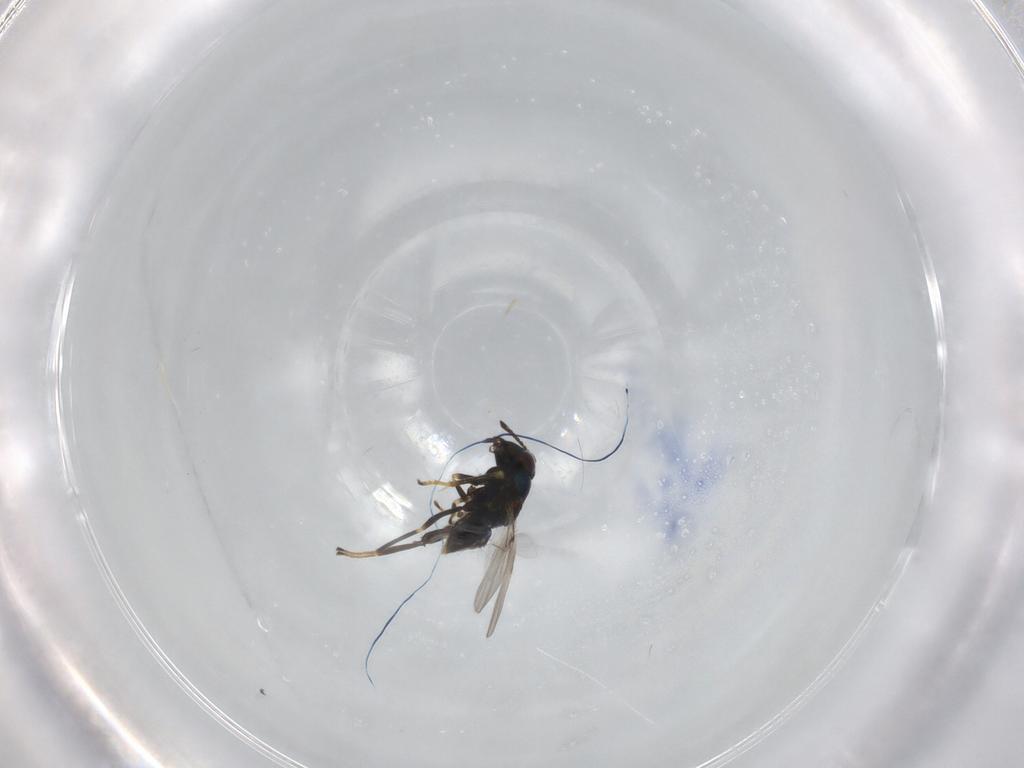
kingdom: Animalia
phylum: Arthropoda
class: Insecta
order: Hymenoptera
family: Encyrtidae
